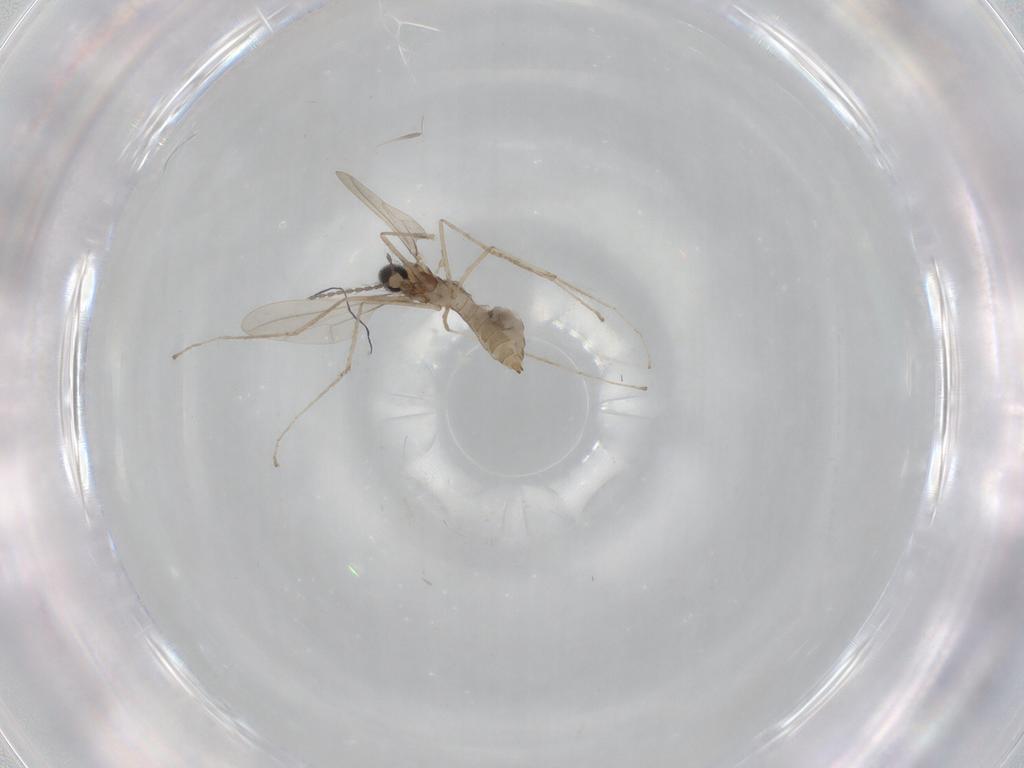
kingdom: Animalia
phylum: Arthropoda
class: Insecta
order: Diptera
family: Cecidomyiidae
